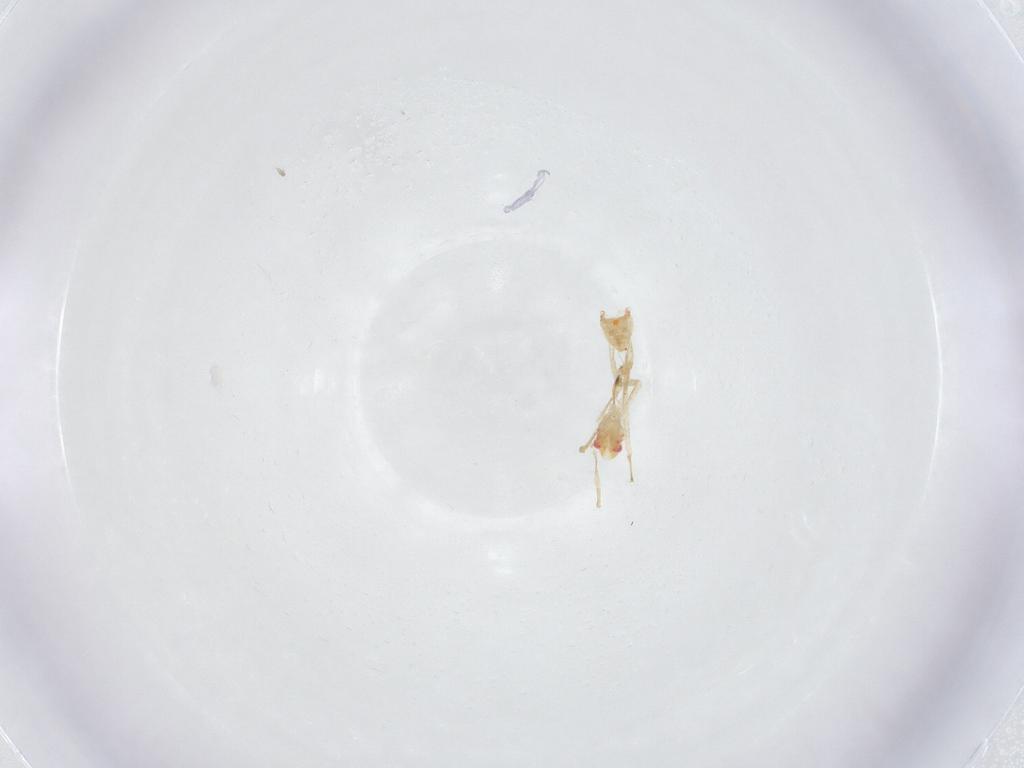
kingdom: Animalia
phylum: Arthropoda
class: Insecta
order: Hemiptera
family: Miridae
